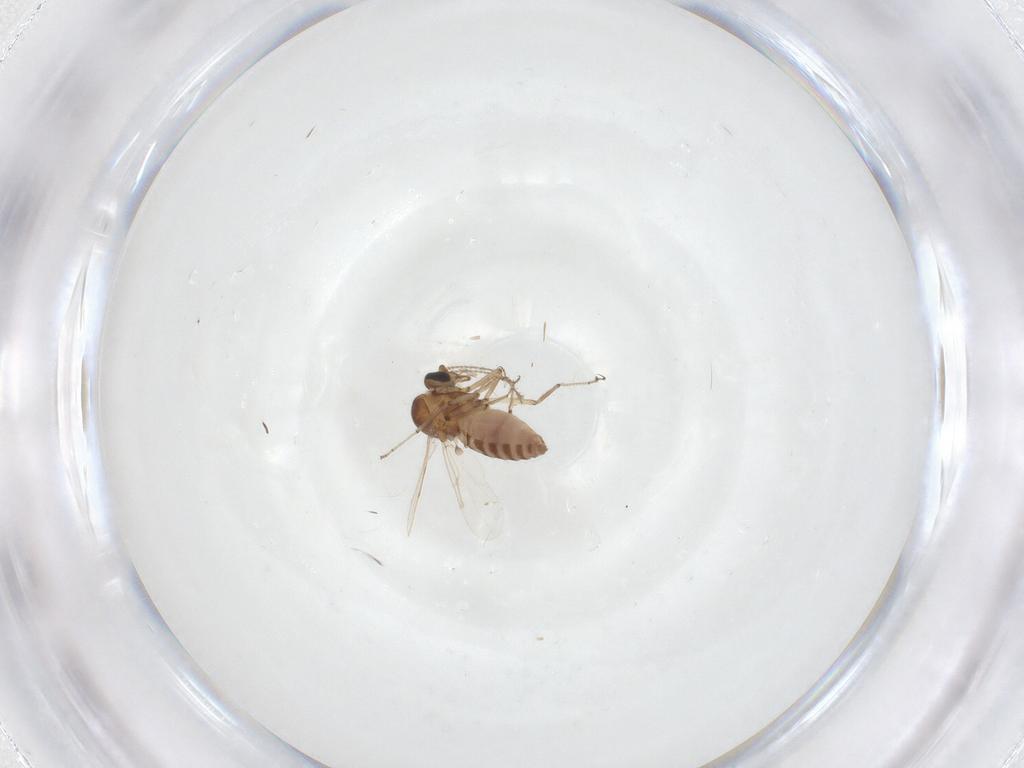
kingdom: Animalia
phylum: Arthropoda
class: Insecta
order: Diptera
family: Ceratopogonidae
